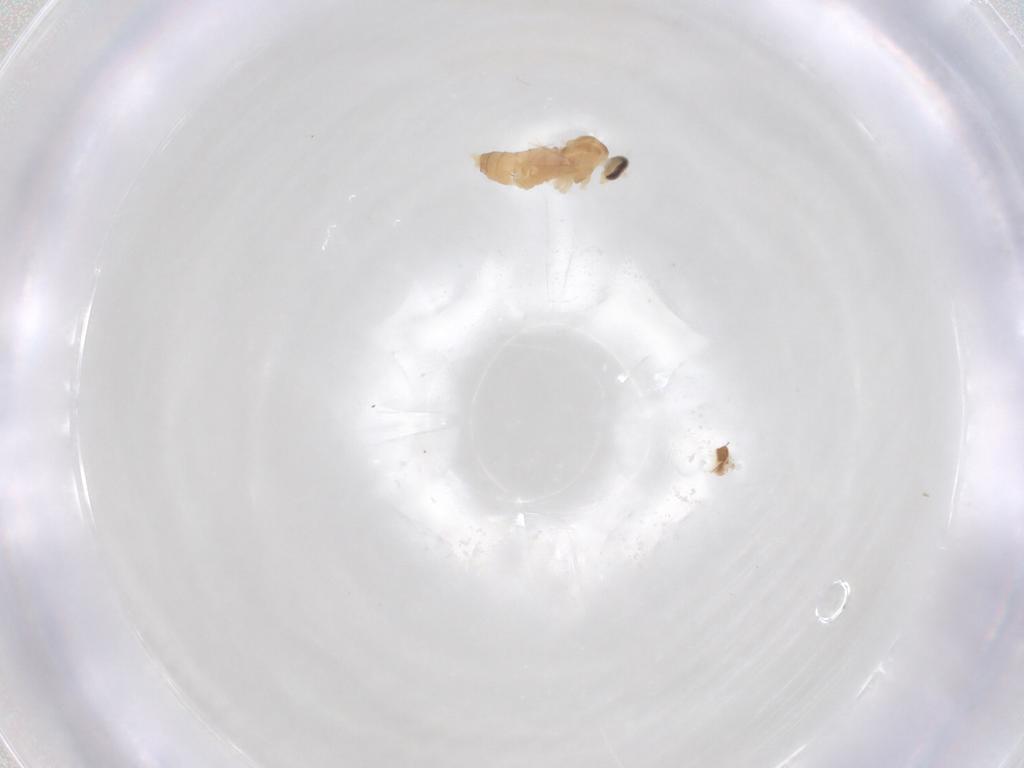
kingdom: Animalia
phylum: Arthropoda
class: Insecta
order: Diptera
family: Cecidomyiidae
